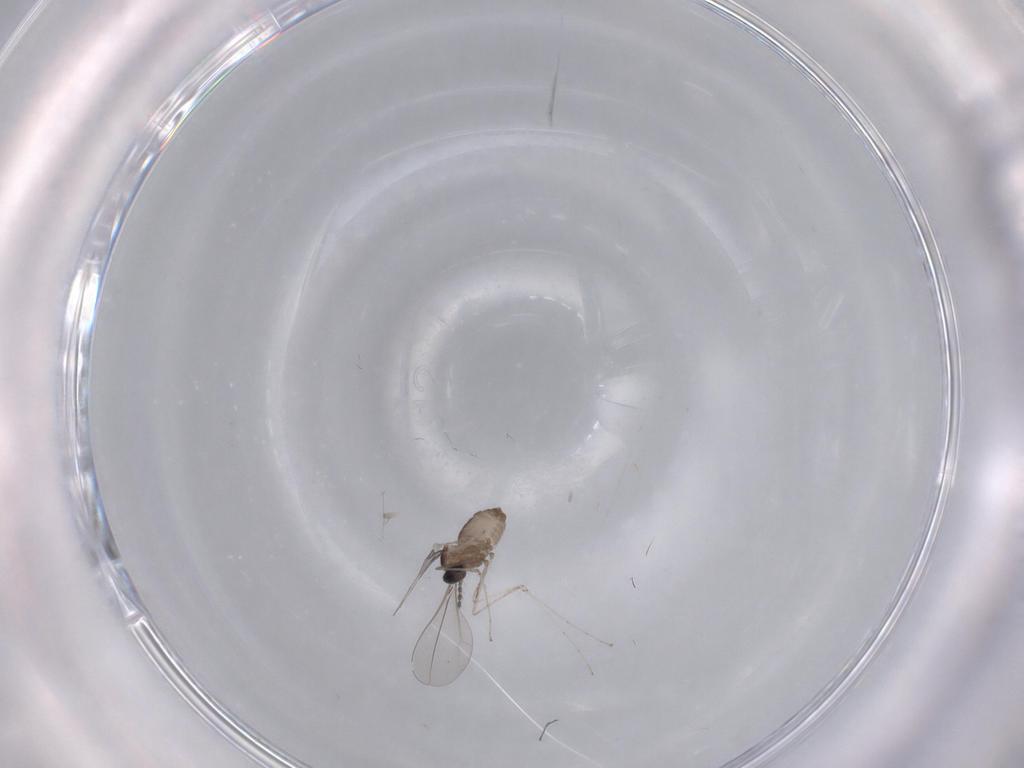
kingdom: Animalia
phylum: Arthropoda
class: Insecta
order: Diptera
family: Cecidomyiidae
